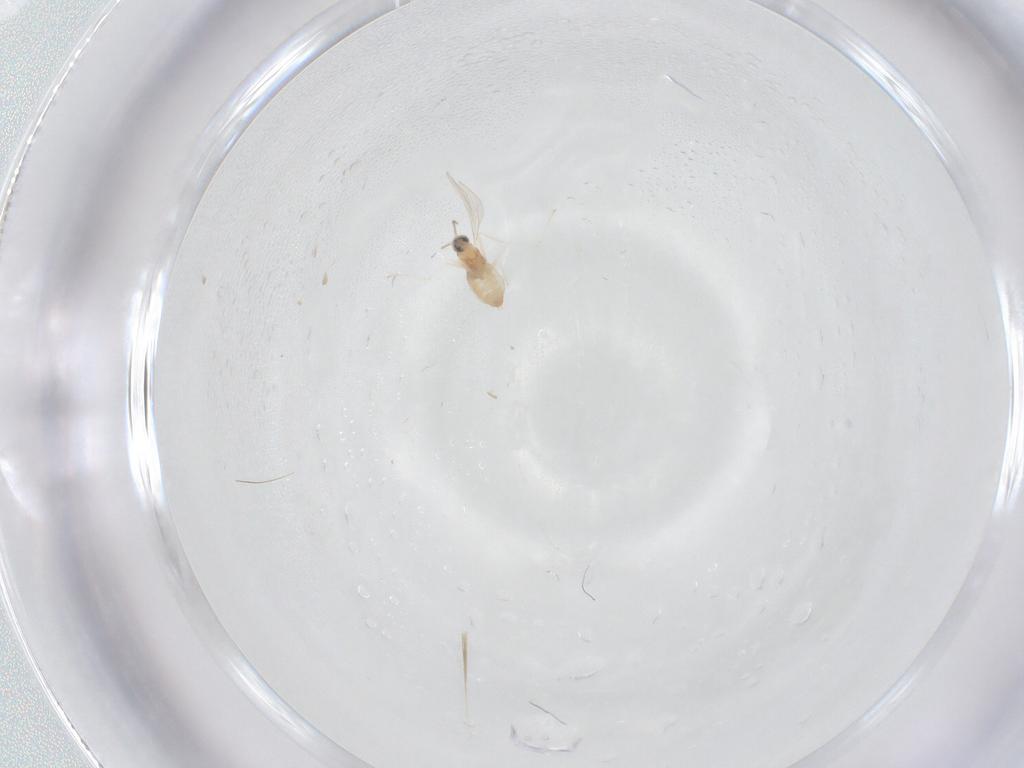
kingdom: Animalia
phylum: Arthropoda
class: Insecta
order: Diptera
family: Cecidomyiidae
